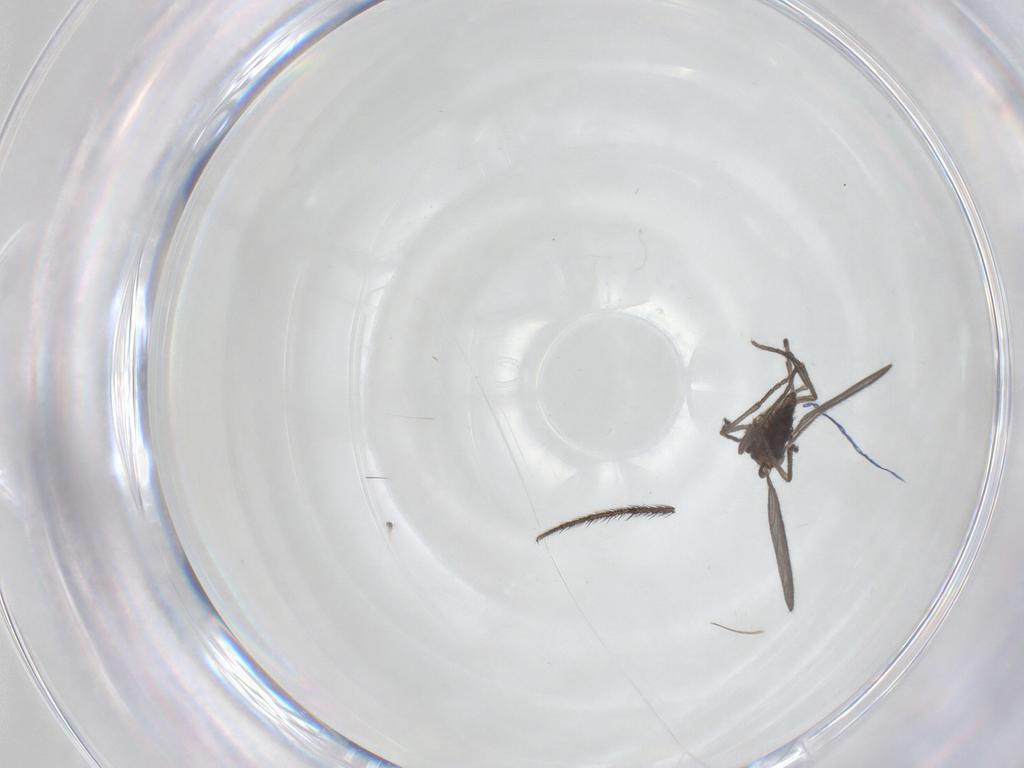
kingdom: Animalia
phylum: Arthropoda
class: Insecta
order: Diptera
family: Sciaridae
